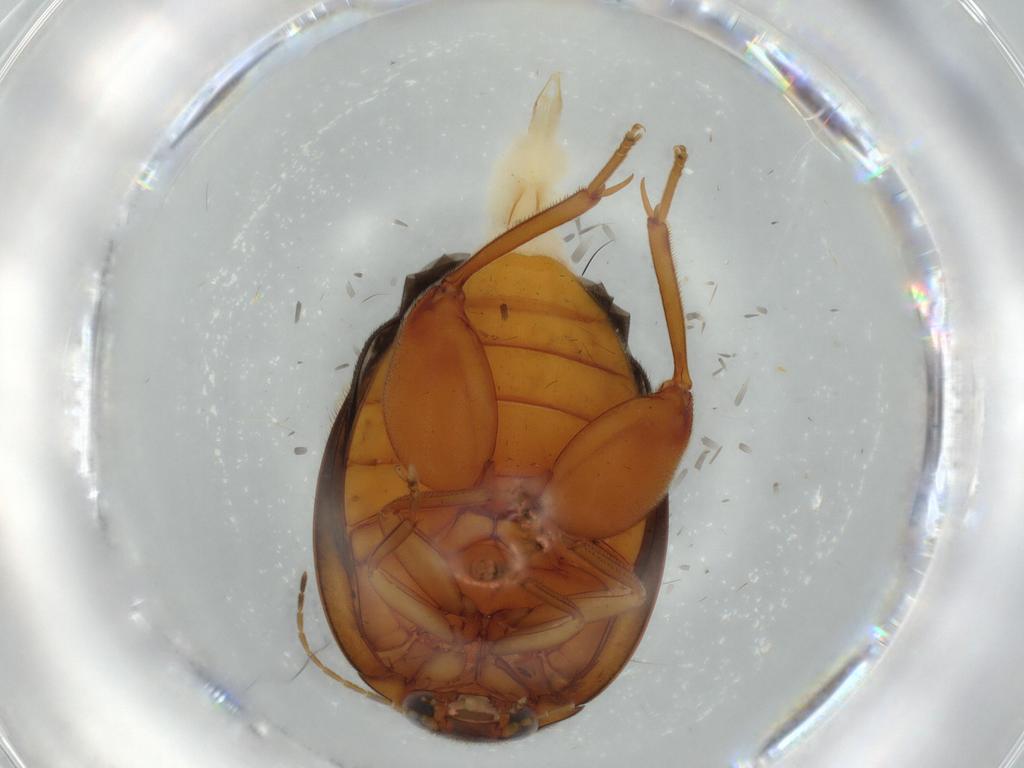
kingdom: Animalia
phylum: Arthropoda
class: Insecta
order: Coleoptera
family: Scirtidae
